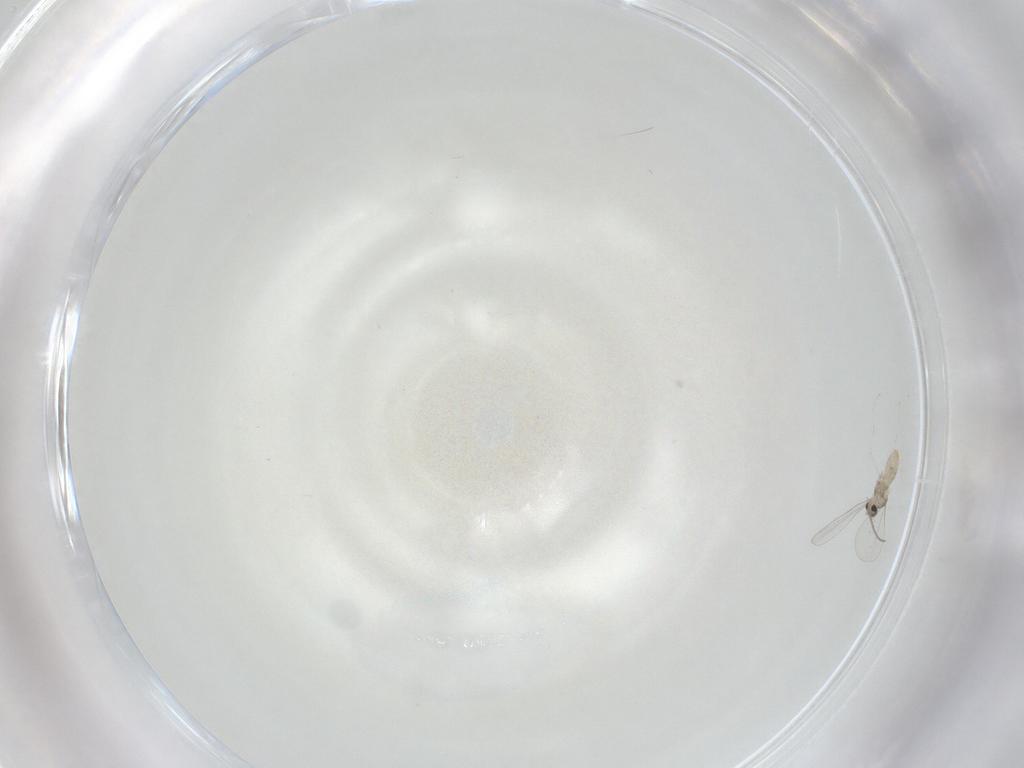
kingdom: Animalia
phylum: Arthropoda
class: Insecta
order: Diptera
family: Cecidomyiidae
